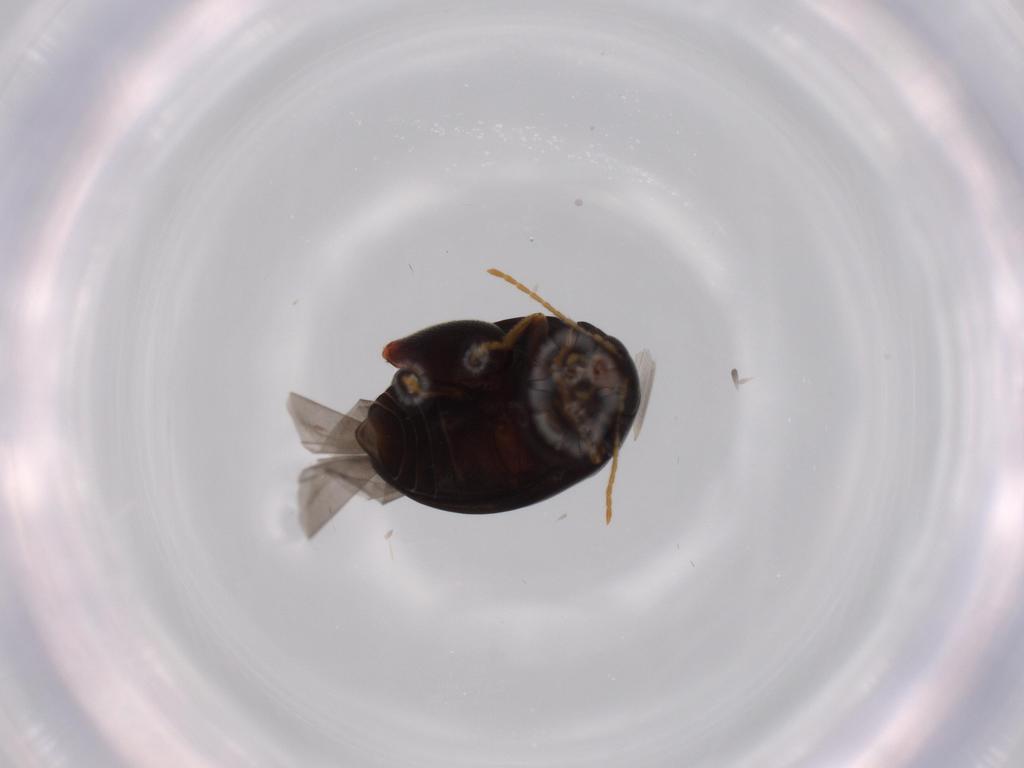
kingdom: Animalia
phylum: Arthropoda
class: Insecta
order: Coleoptera
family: Chrysomelidae
